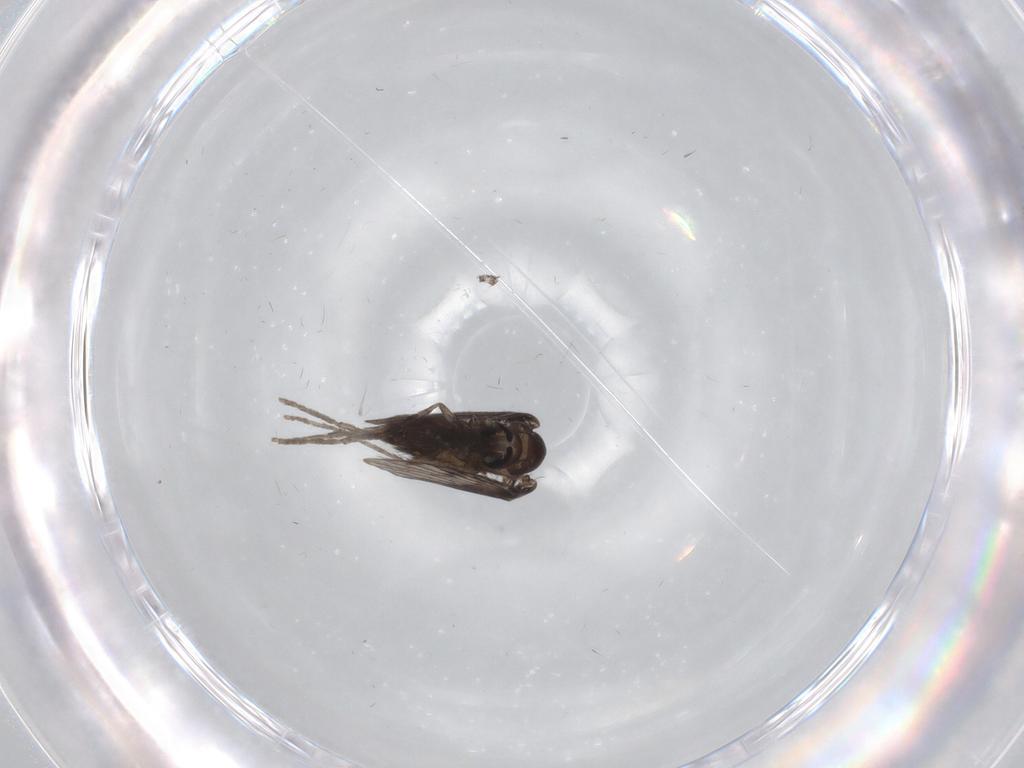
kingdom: Animalia
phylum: Arthropoda
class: Insecta
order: Diptera
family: Psychodidae
